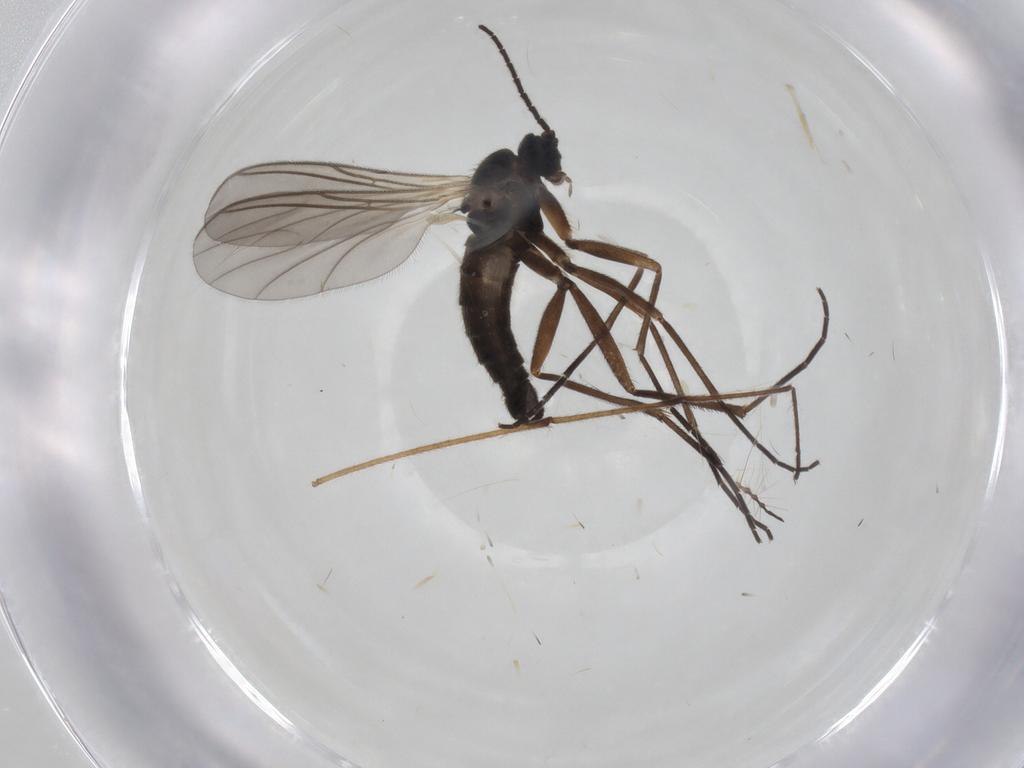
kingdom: Animalia
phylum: Arthropoda
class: Insecta
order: Diptera
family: Sciaridae
